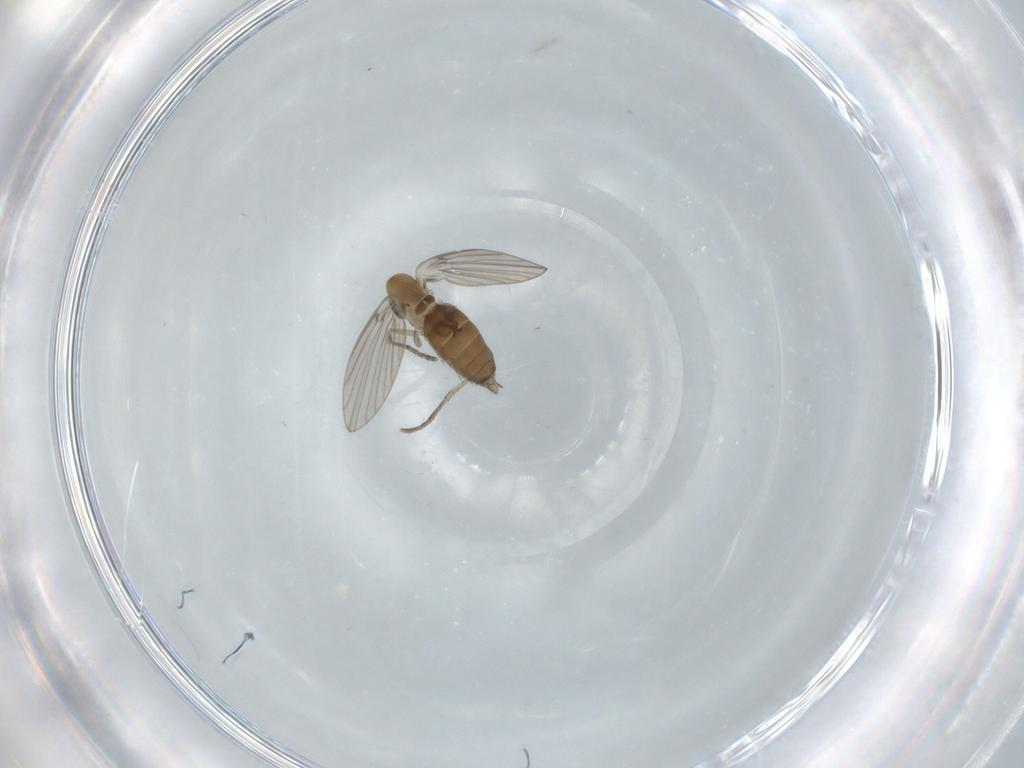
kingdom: Animalia
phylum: Arthropoda
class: Insecta
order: Diptera
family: Psychodidae
